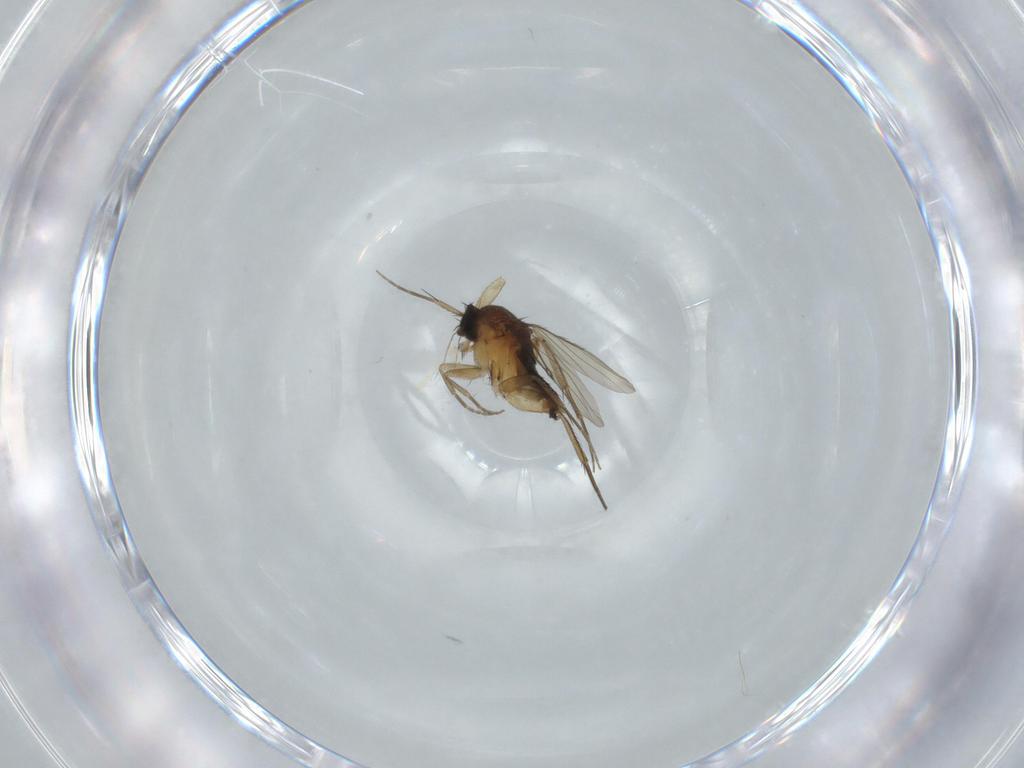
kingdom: Animalia
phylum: Arthropoda
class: Insecta
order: Diptera
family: Phoridae
